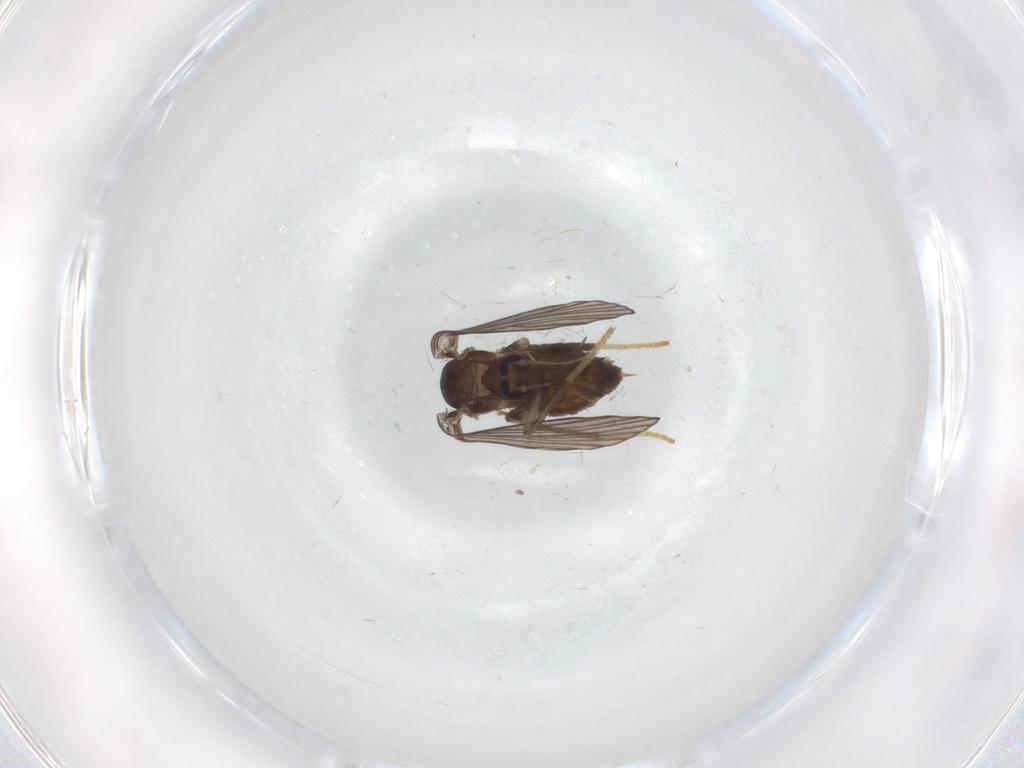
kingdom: Animalia
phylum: Arthropoda
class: Insecta
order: Diptera
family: Psychodidae
